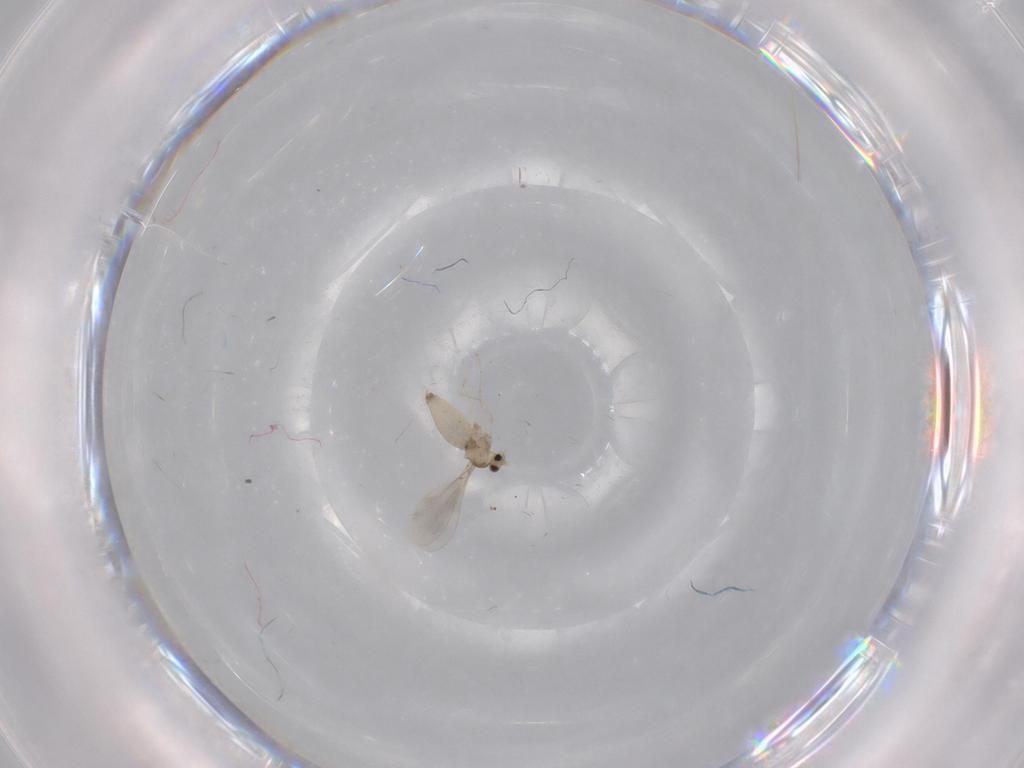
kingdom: Animalia
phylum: Arthropoda
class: Insecta
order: Diptera
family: Cecidomyiidae
